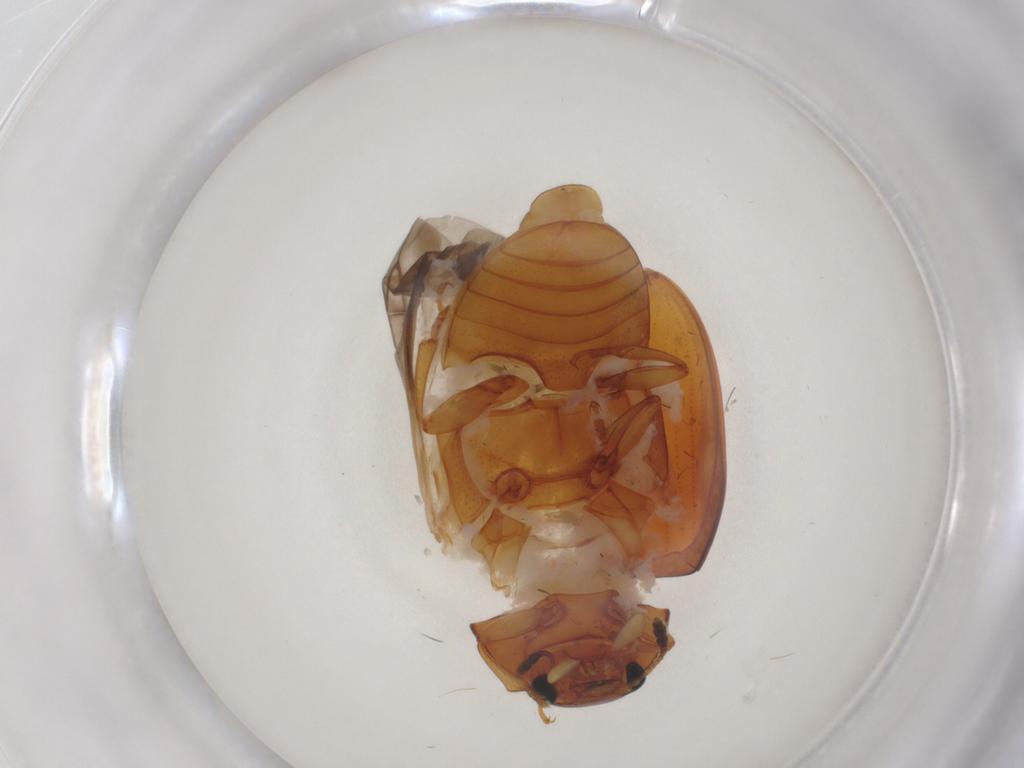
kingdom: Animalia
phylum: Arthropoda
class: Insecta
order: Coleoptera
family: Erotylidae
